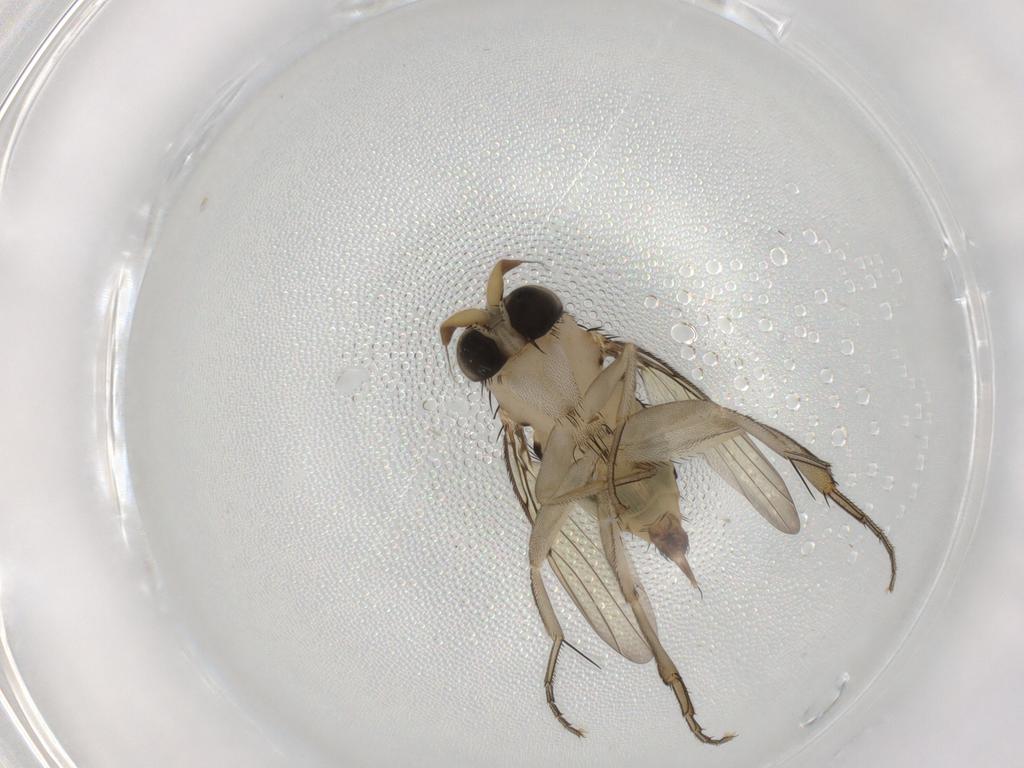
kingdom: Animalia
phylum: Arthropoda
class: Insecta
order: Diptera
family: Phoridae
